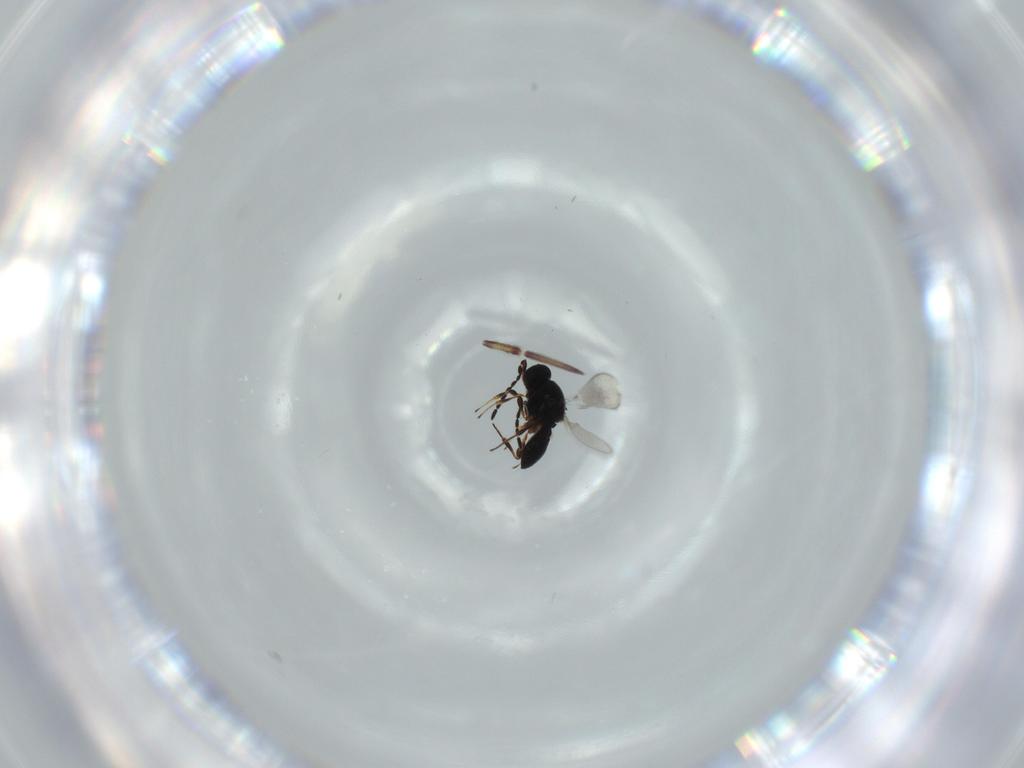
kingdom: Animalia
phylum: Arthropoda
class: Insecta
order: Hymenoptera
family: Platygastridae
